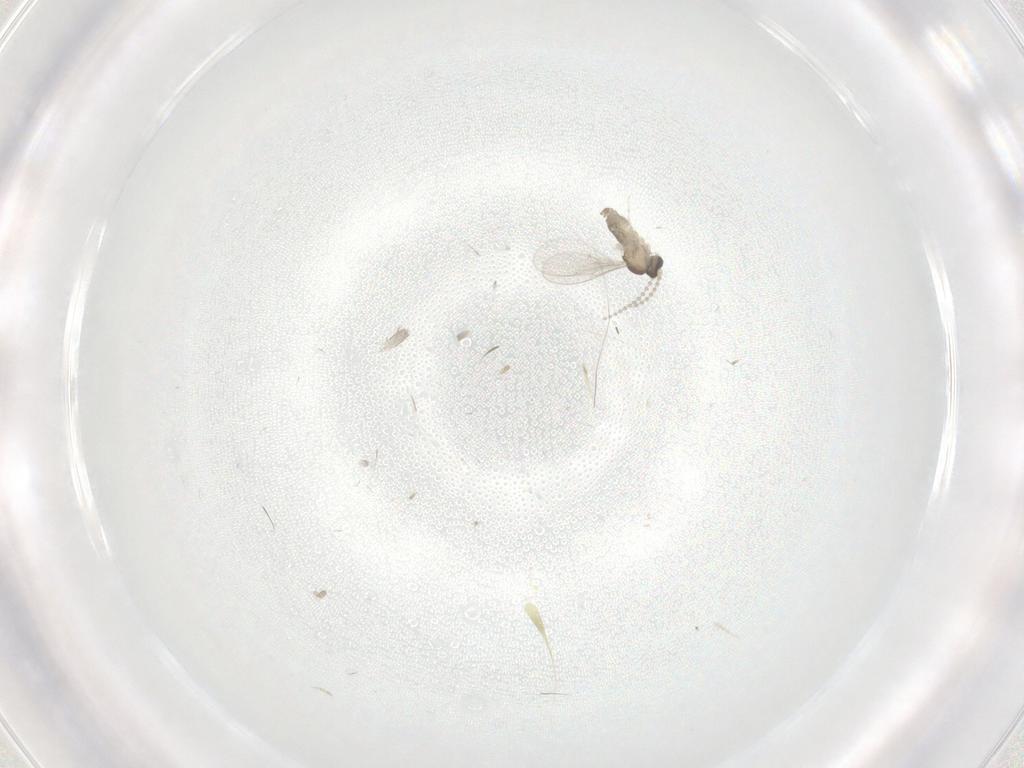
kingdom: Animalia
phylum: Arthropoda
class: Insecta
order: Diptera
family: Cecidomyiidae
